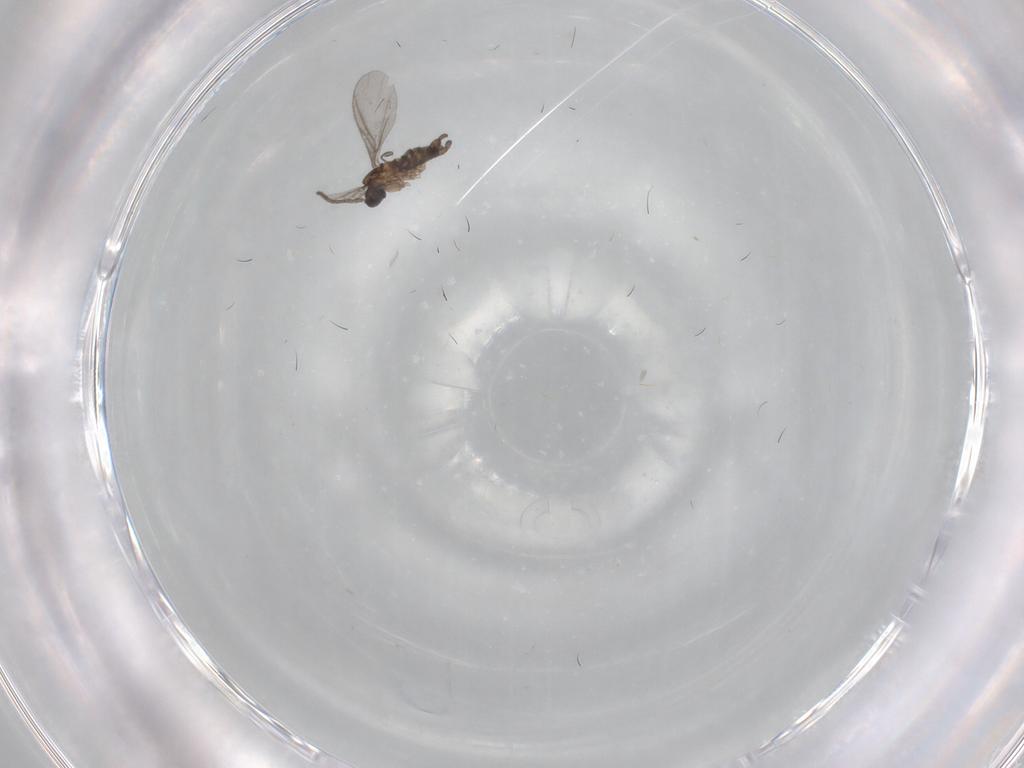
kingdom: Animalia
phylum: Arthropoda
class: Insecta
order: Diptera
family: Sciaridae
